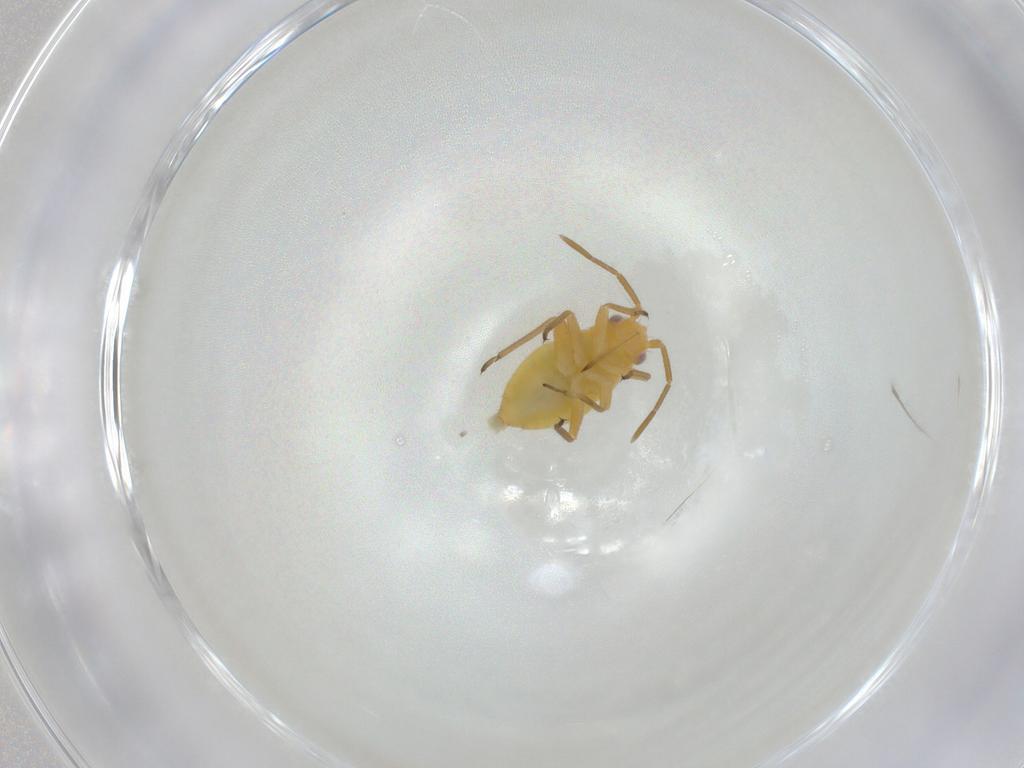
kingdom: Animalia
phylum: Arthropoda
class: Insecta
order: Hemiptera
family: Miridae
